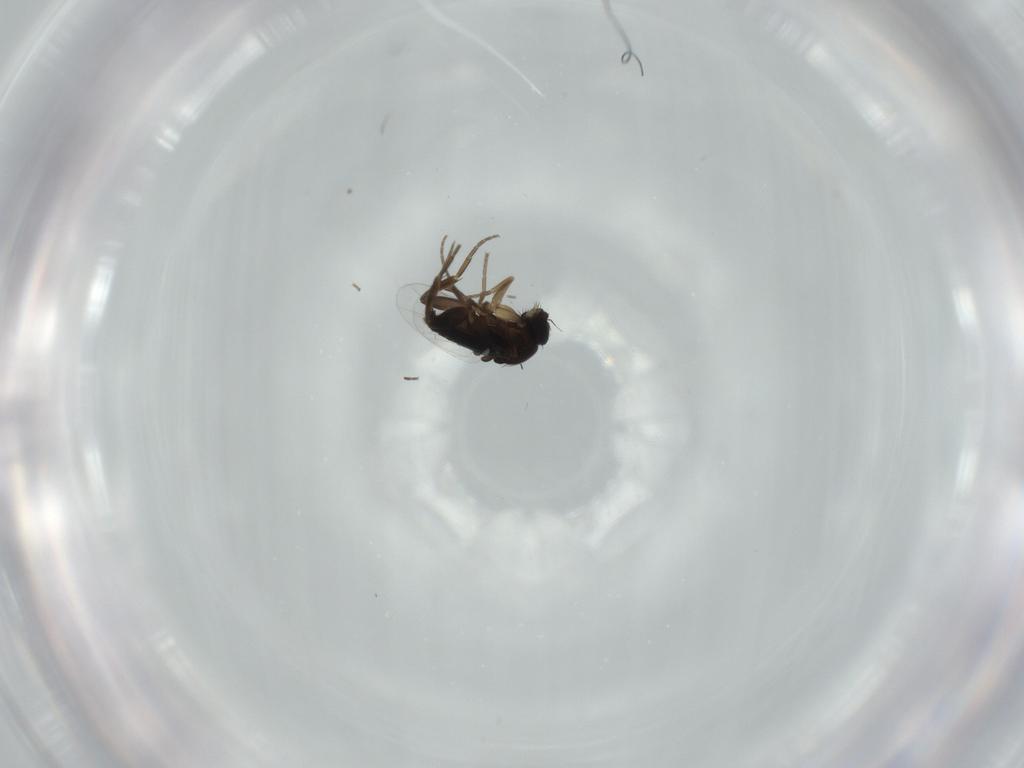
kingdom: Animalia
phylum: Arthropoda
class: Insecta
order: Diptera
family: Phoridae
